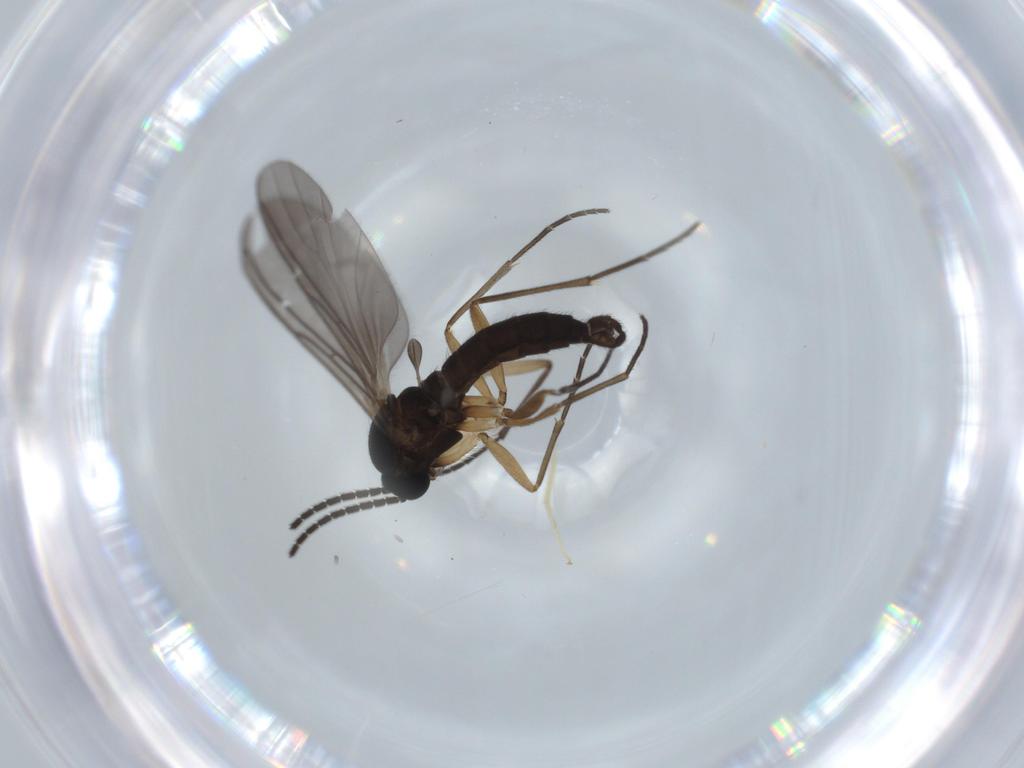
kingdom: Animalia
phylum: Arthropoda
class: Insecta
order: Diptera
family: Sciaridae
